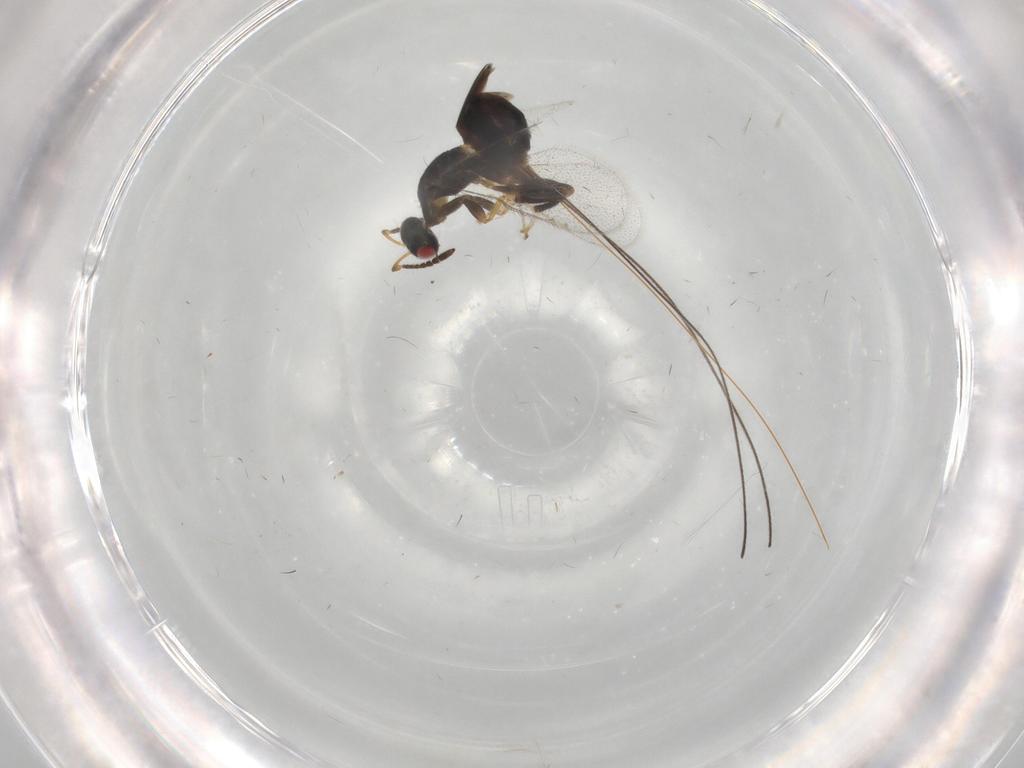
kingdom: Animalia
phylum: Arthropoda
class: Insecta
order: Hymenoptera
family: Torymidae
